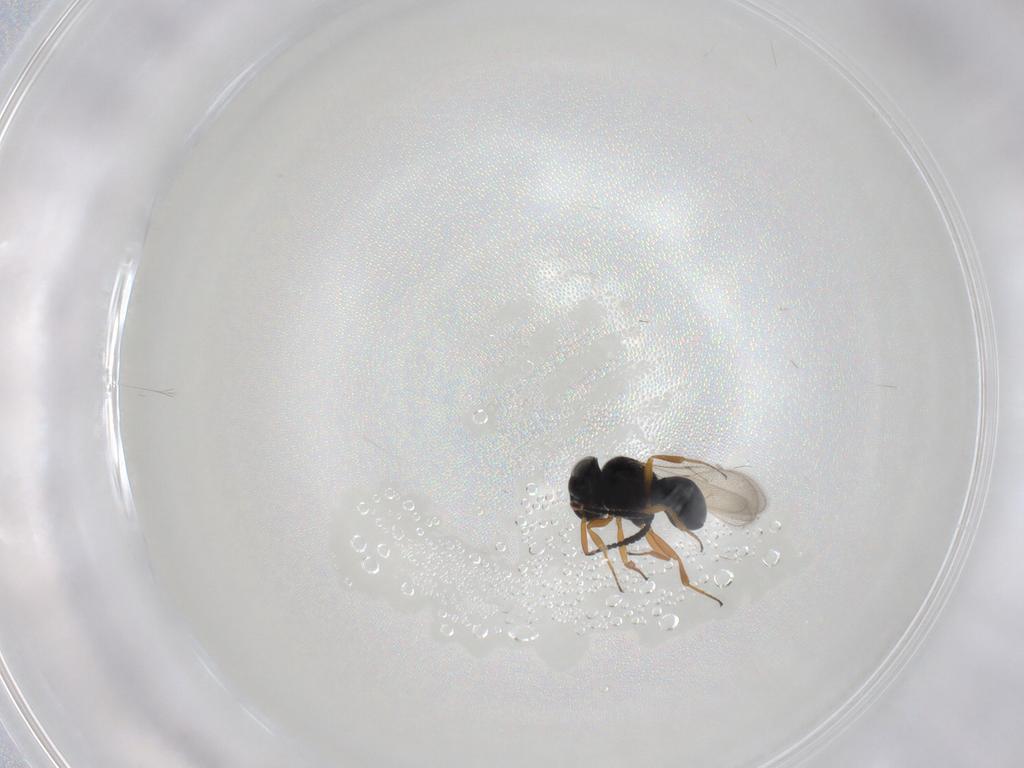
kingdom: Animalia
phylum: Arthropoda
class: Insecta
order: Hymenoptera
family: Scelionidae
